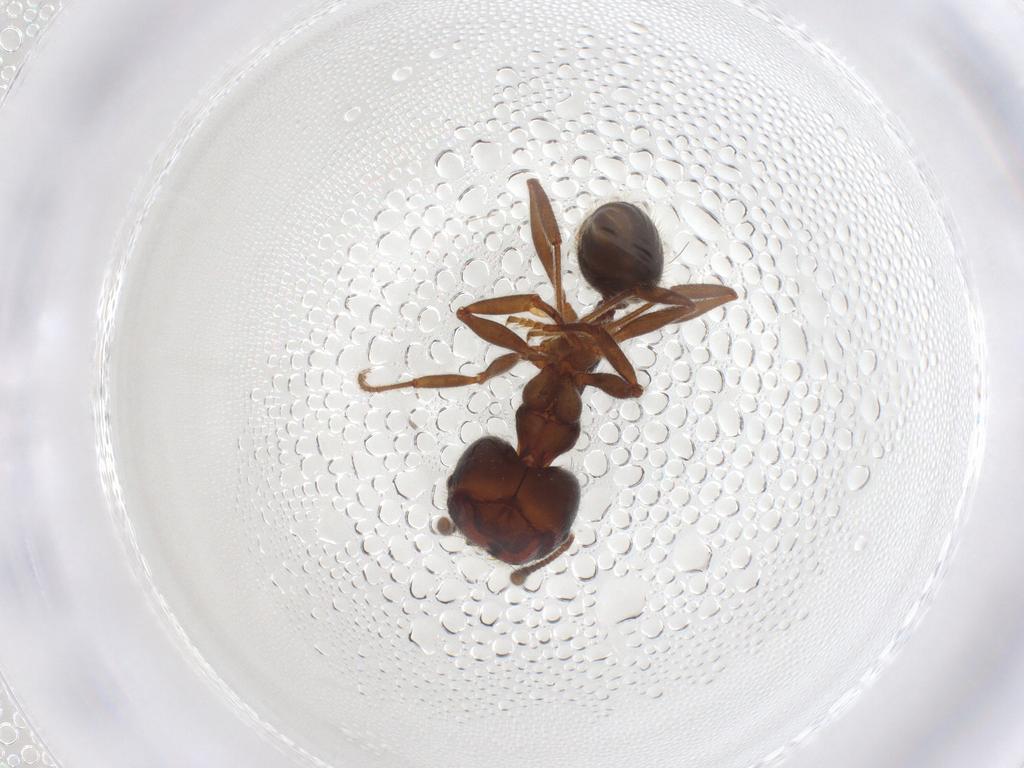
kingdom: Animalia
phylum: Arthropoda
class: Insecta
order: Hymenoptera
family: Formicidae
